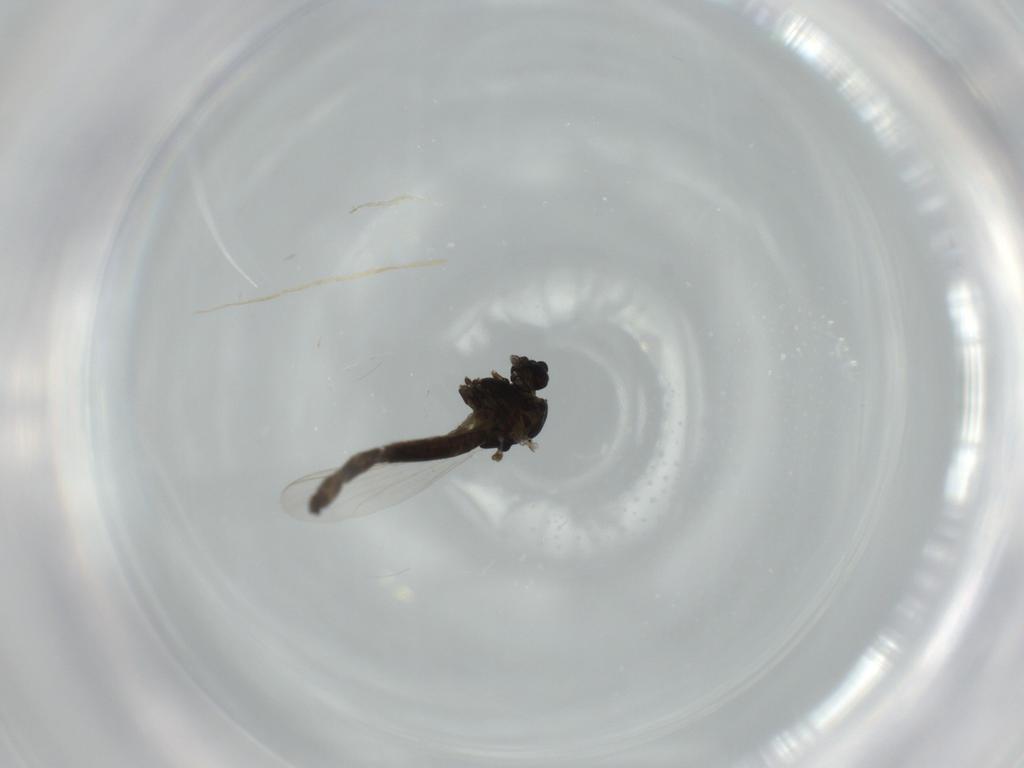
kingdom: Animalia
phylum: Arthropoda
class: Insecta
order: Diptera
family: Chironomidae
